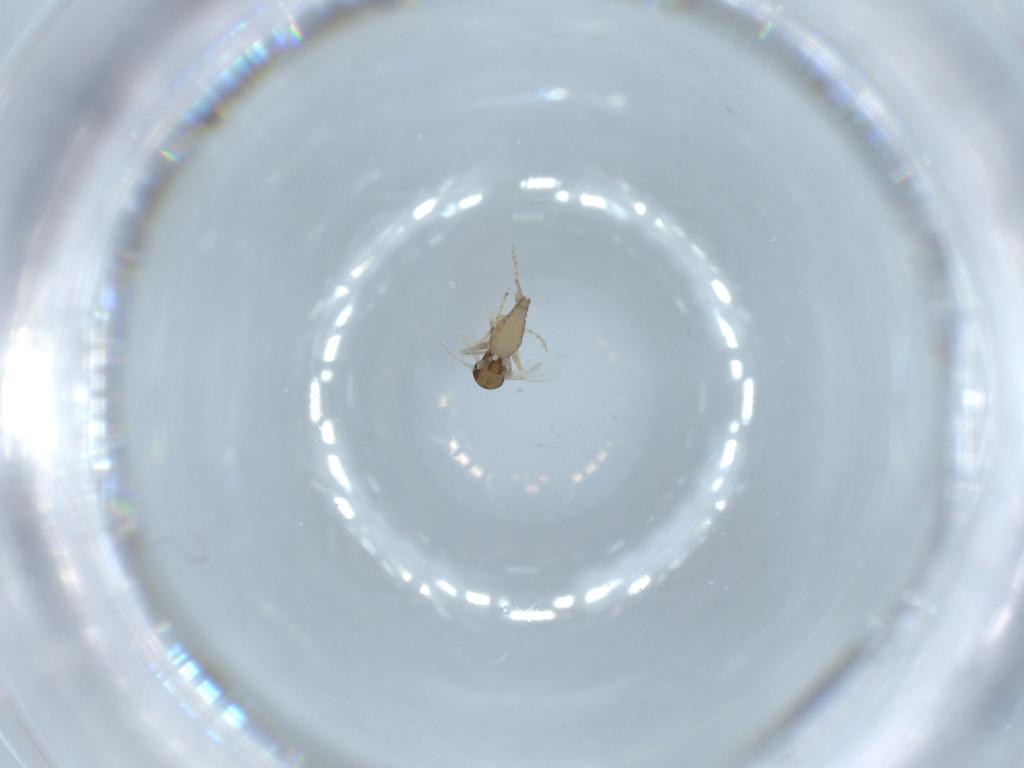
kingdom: Animalia
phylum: Arthropoda
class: Insecta
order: Diptera
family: Ceratopogonidae
